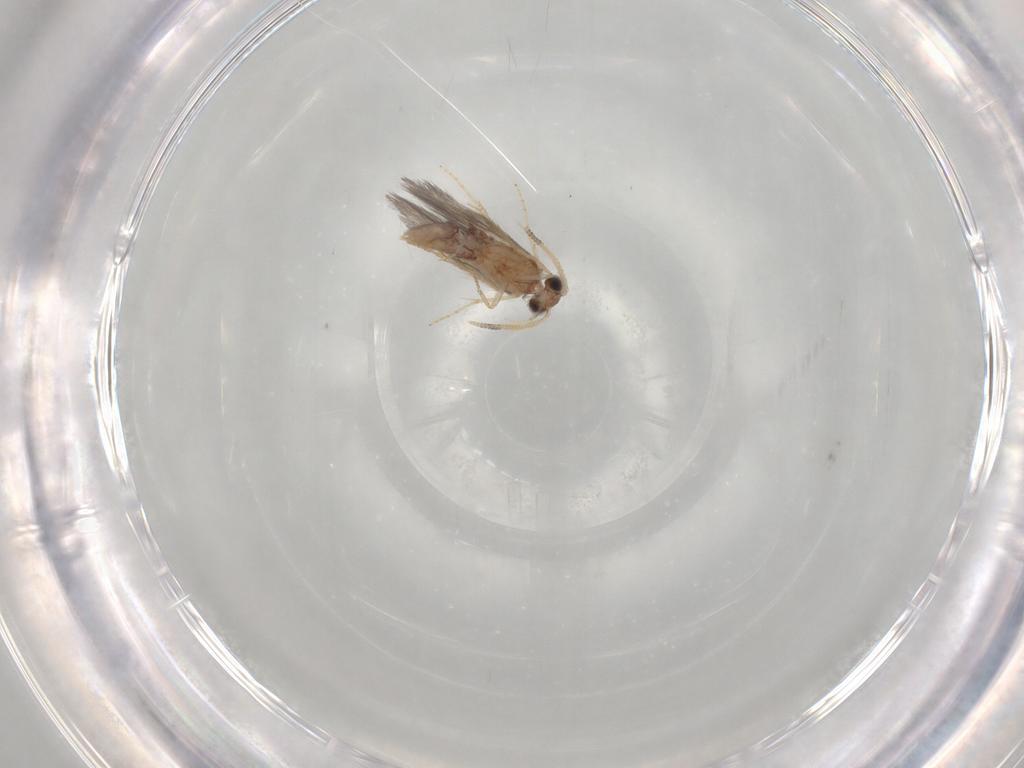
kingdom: Animalia
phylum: Arthropoda
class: Insecta
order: Trichoptera
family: Hydroptilidae
